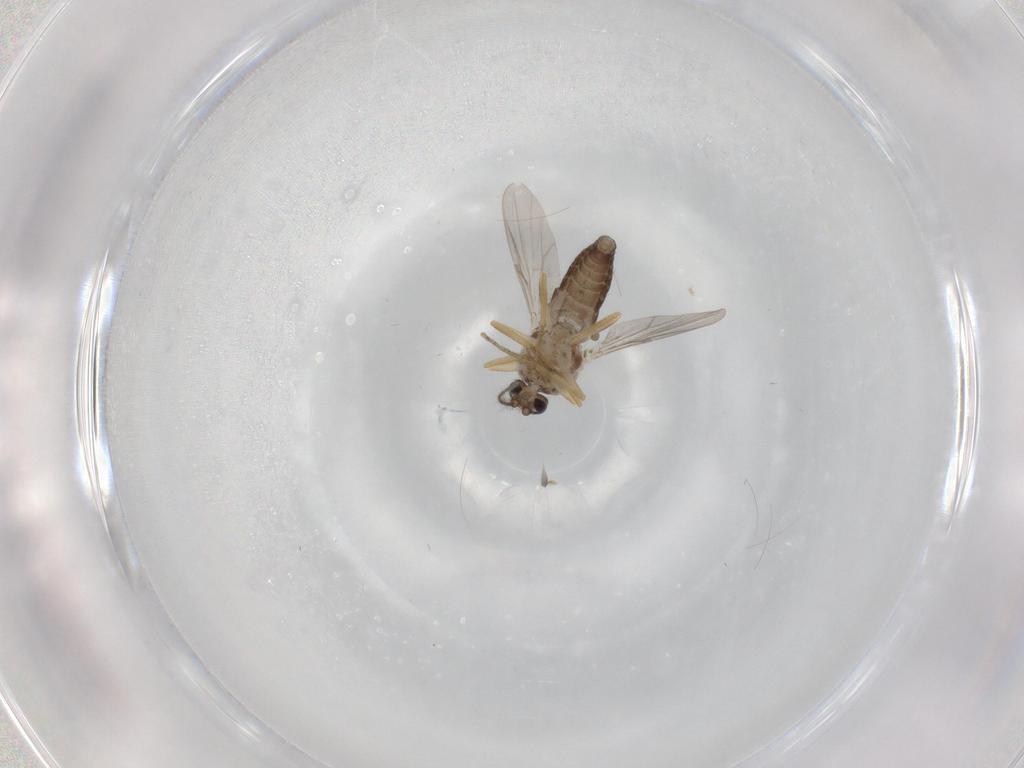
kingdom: Animalia
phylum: Arthropoda
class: Insecta
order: Diptera
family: Ceratopogonidae
